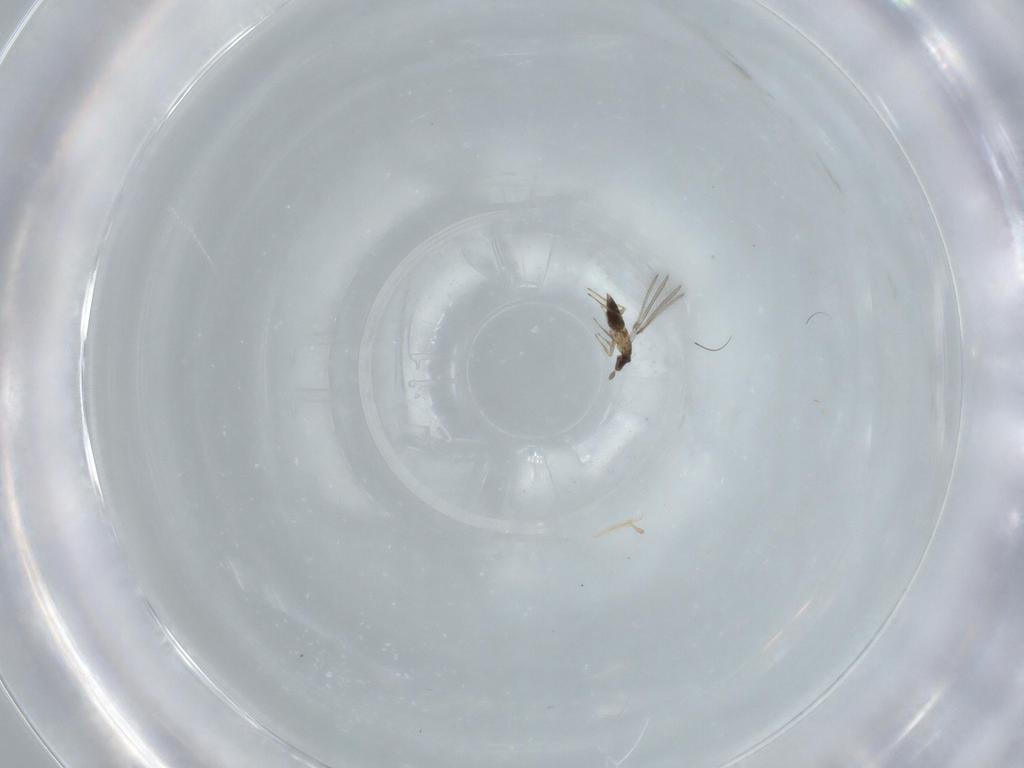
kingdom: Animalia
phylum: Arthropoda
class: Insecta
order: Hymenoptera
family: Mymaridae
